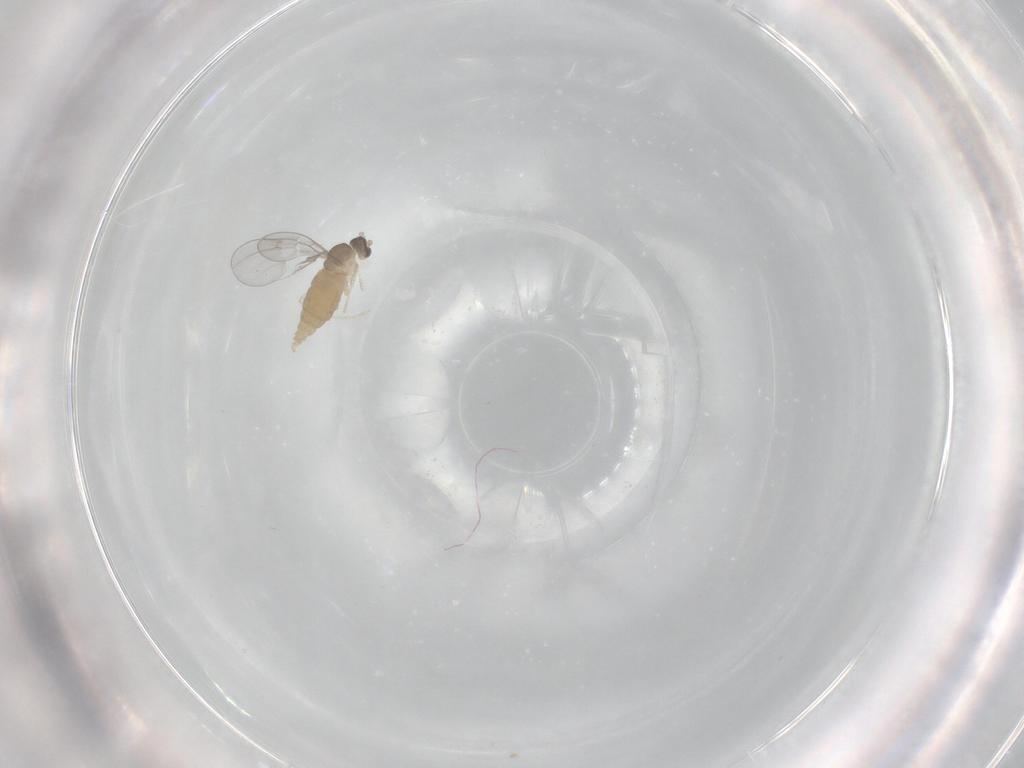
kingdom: Animalia
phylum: Arthropoda
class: Insecta
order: Diptera
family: Cecidomyiidae
